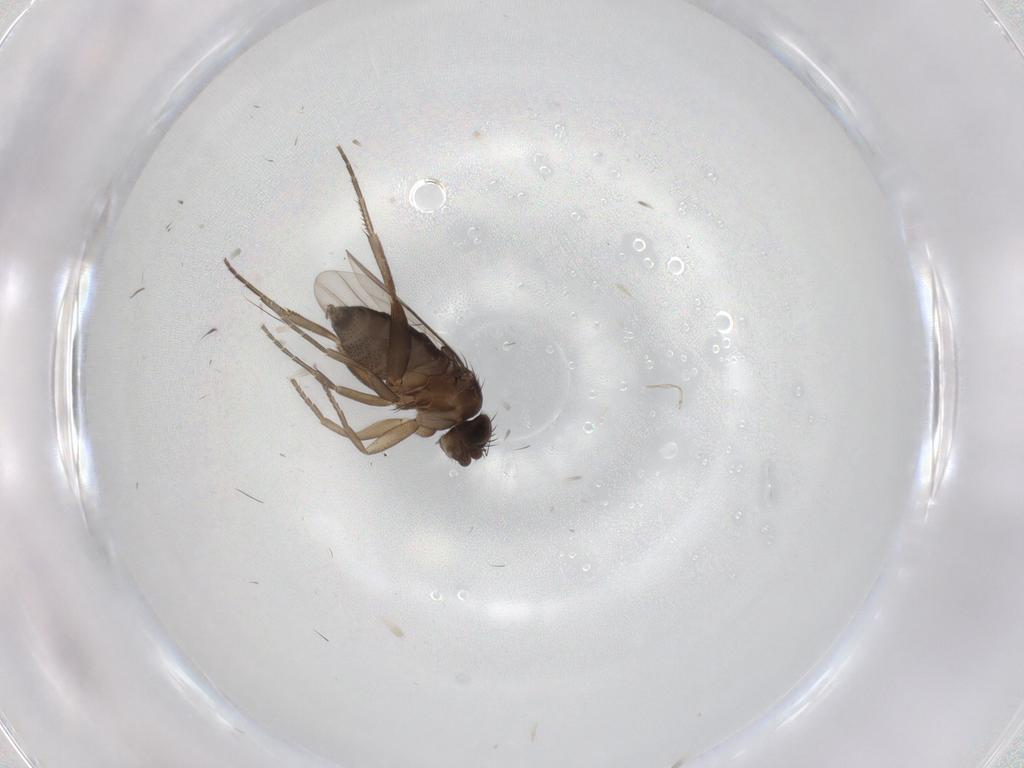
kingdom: Animalia
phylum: Arthropoda
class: Insecta
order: Diptera
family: Phoridae
